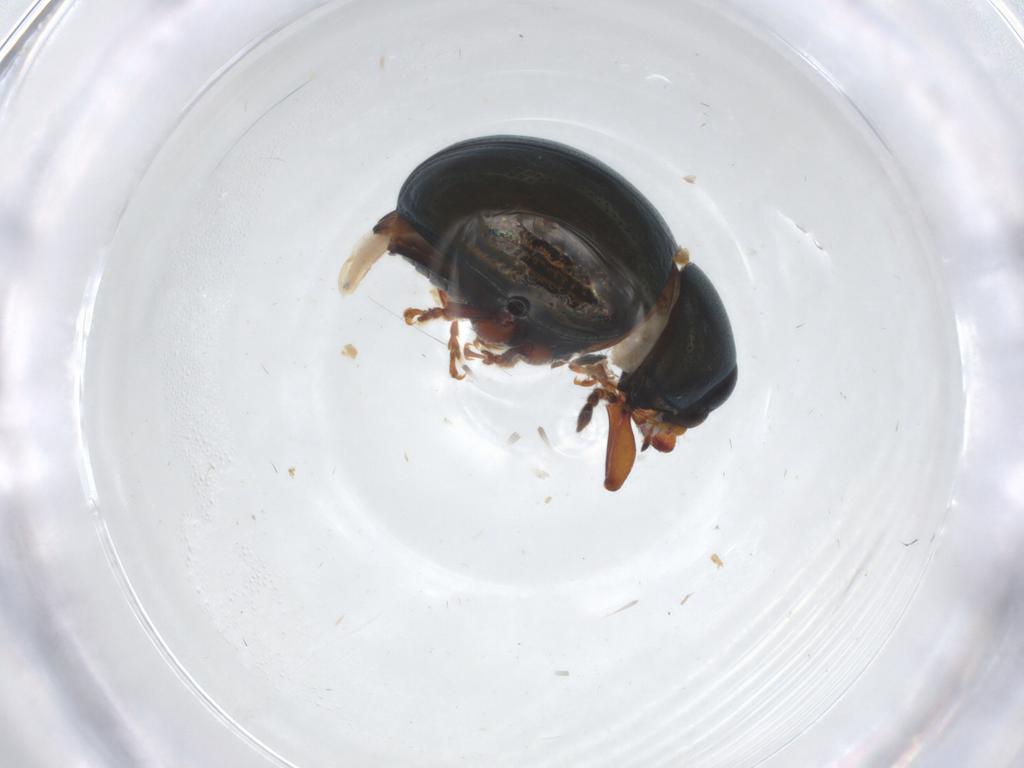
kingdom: Animalia
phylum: Arthropoda
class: Insecta
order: Coleoptera
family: Chrysomelidae
